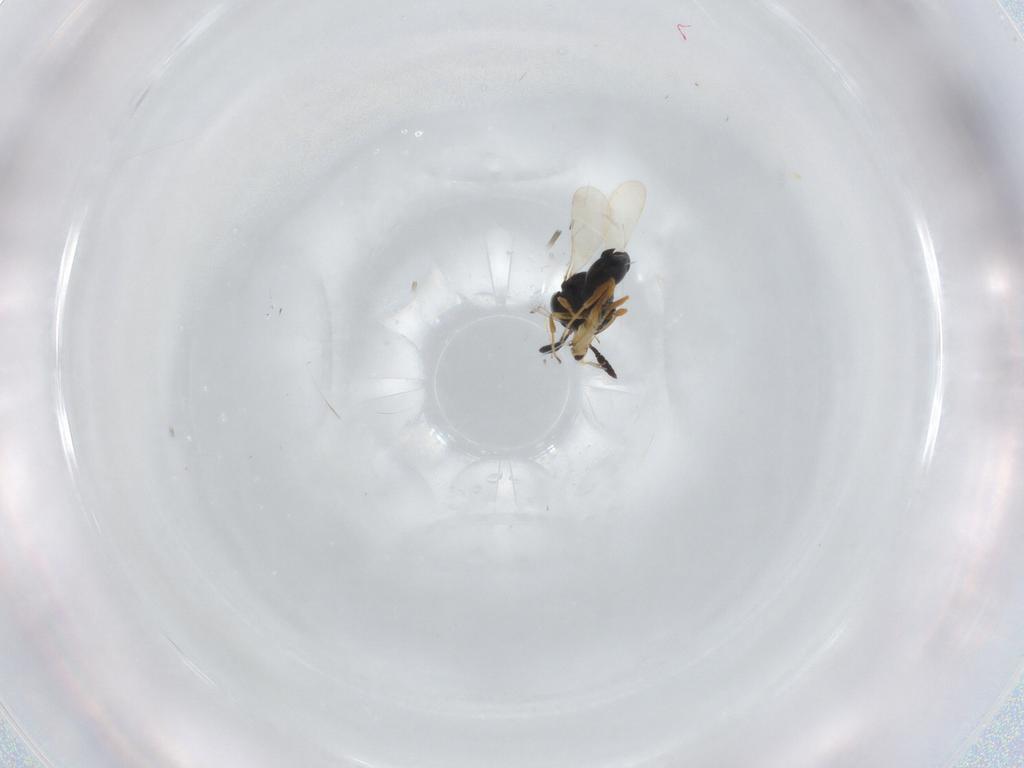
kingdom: Animalia
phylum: Arthropoda
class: Insecta
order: Hymenoptera
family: Scelionidae
